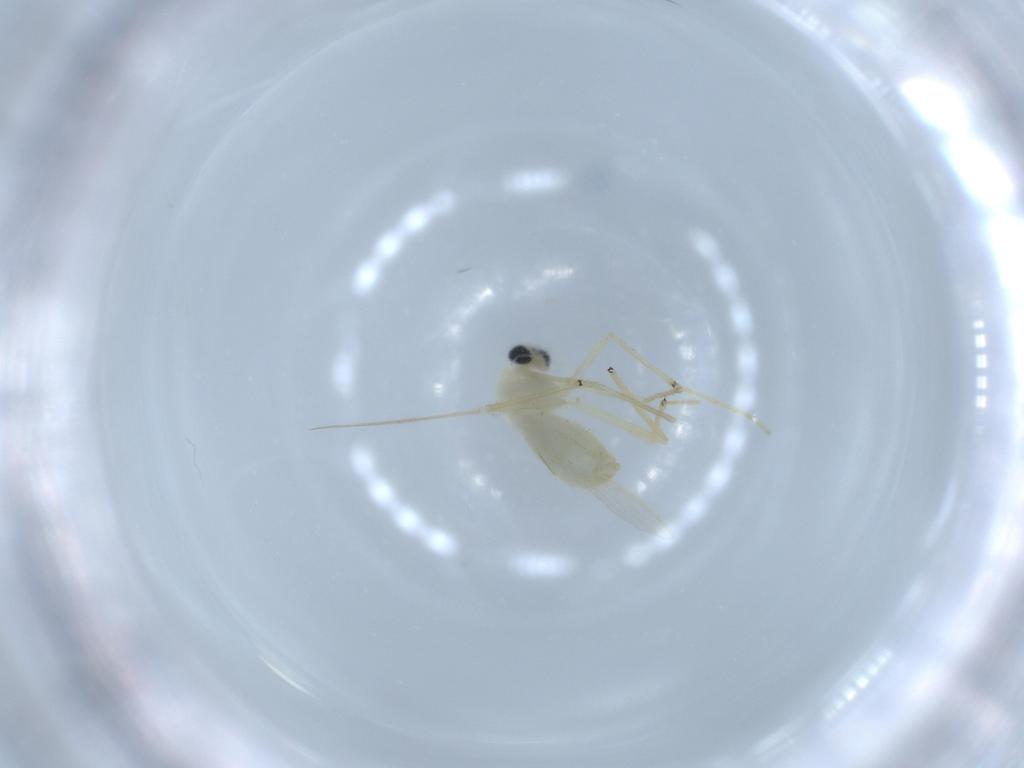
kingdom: Animalia
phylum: Arthropoda
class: Insecta
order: Diptera
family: Chironomidae
